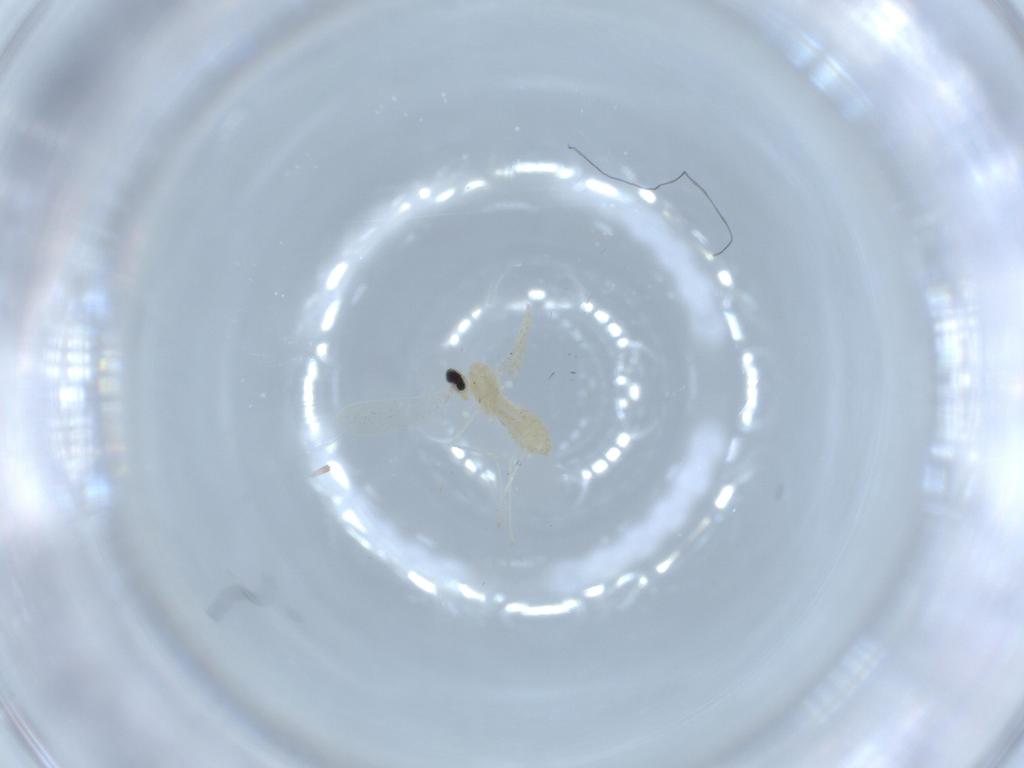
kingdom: Animalia
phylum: Arthropoda
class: Insecta
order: Diptera
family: Cecidomyiidae
